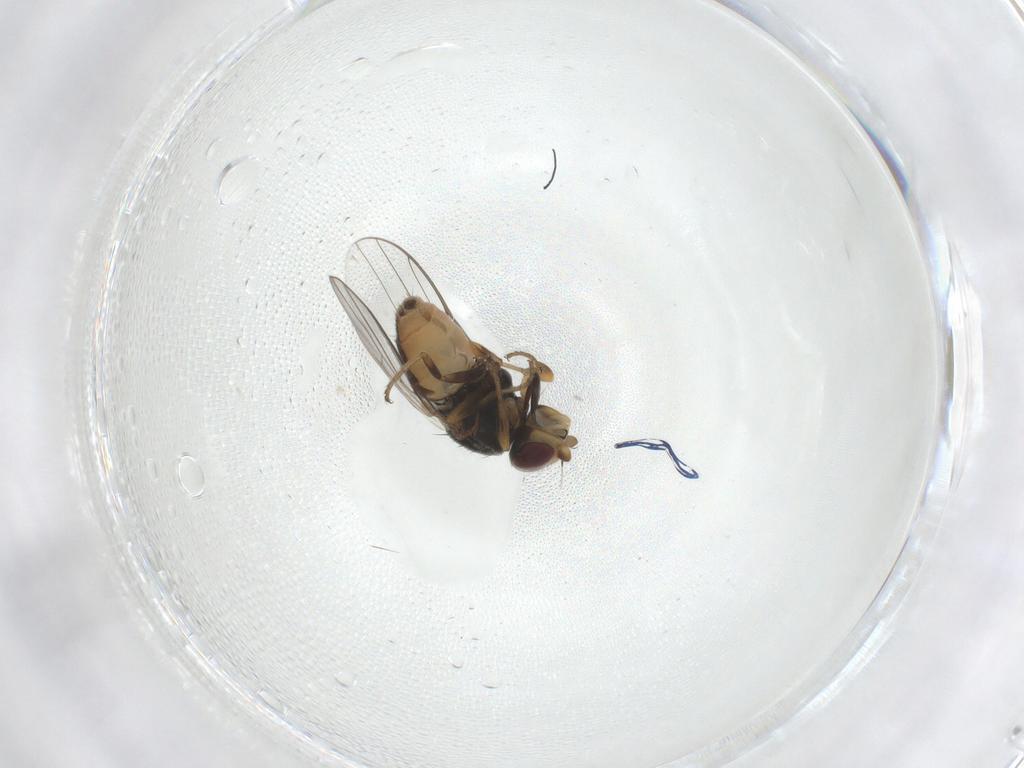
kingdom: Animalia
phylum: Arthropoda
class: Insecta
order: Diptera
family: Chloropidae
